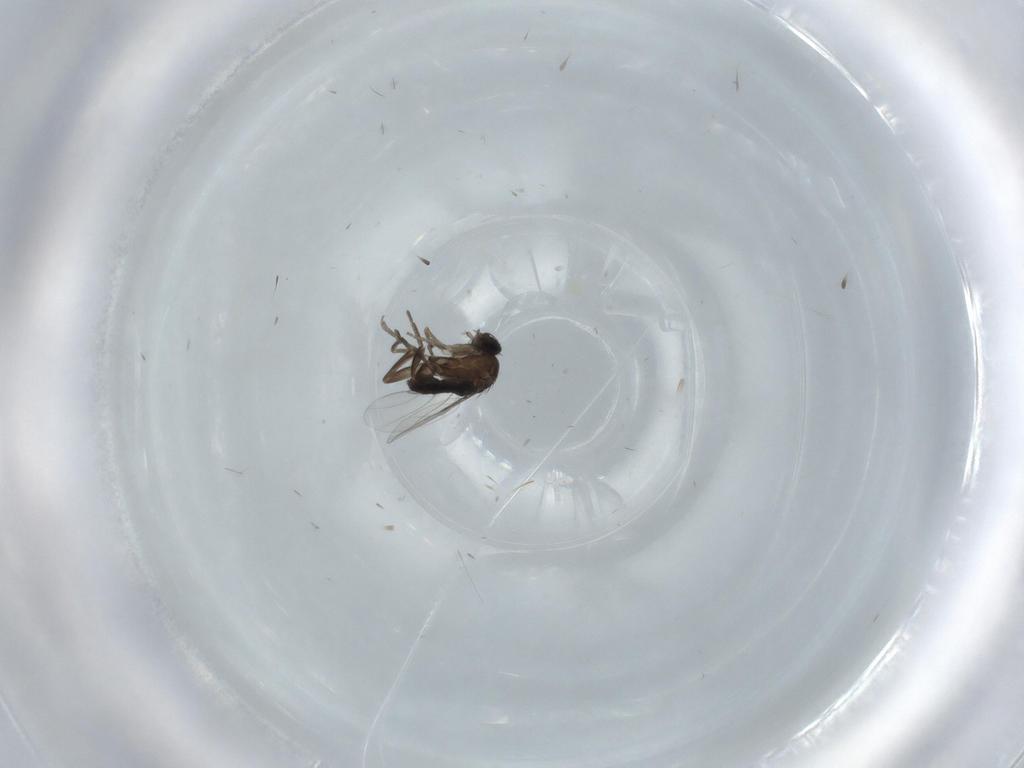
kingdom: Animalia
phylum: Arthropoda
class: Insecta
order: Diptera
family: Phoridae
